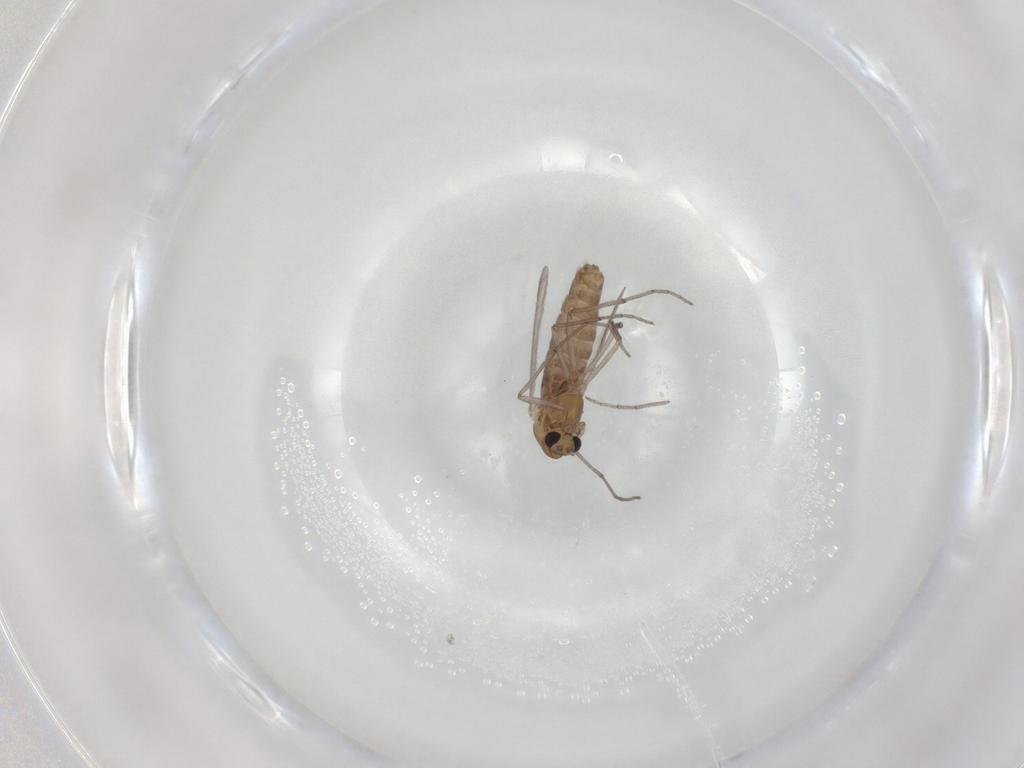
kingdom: Animalia
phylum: Arthropoda
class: Insecta
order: Diptera
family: Chironomidae
